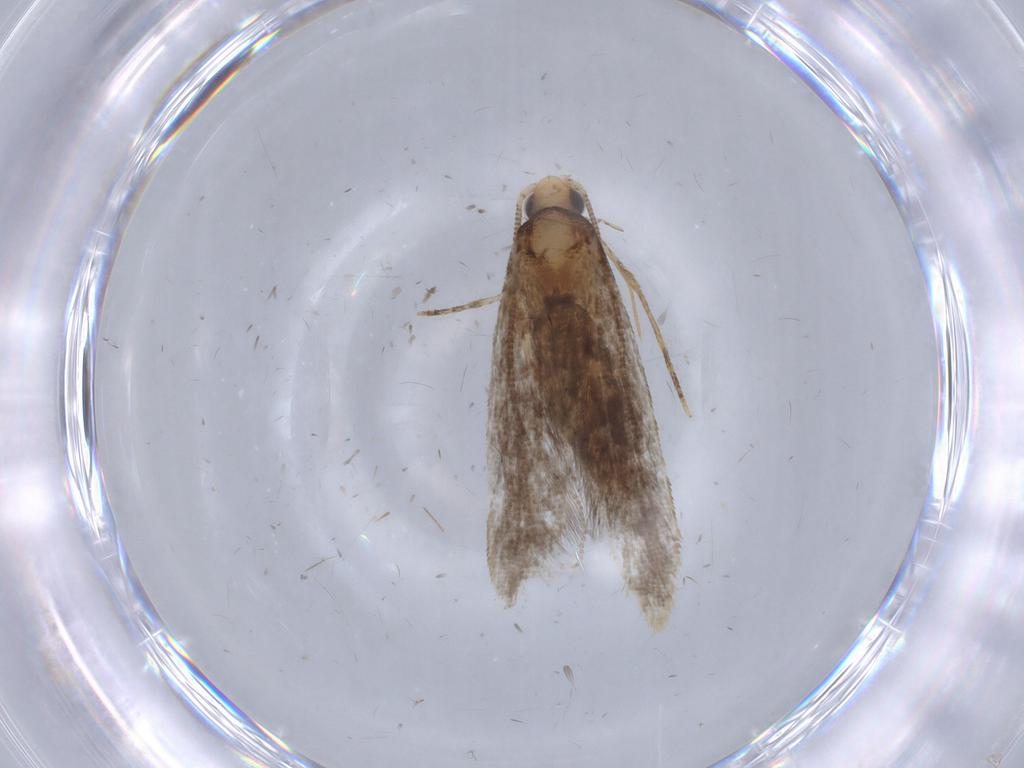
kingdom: Animalia
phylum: Arthropoda
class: Insecta
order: Lepidoptera
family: Tineidae
